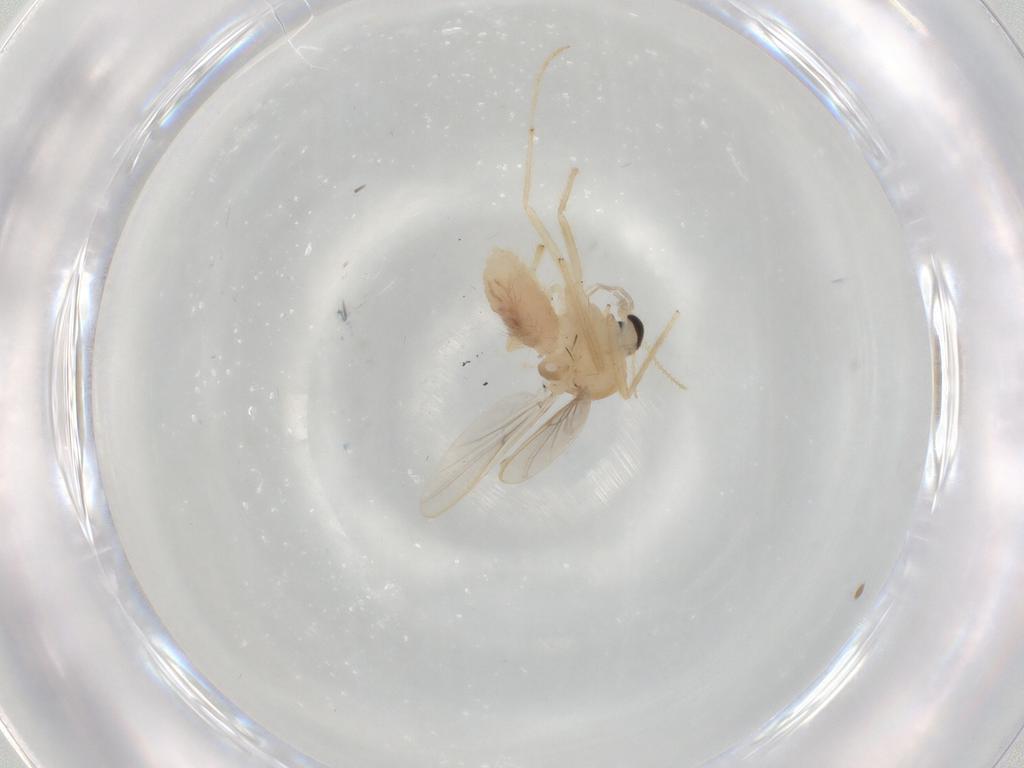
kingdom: Animalia
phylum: Arthropoda
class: Insecta
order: Diptera
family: Chironomidae
